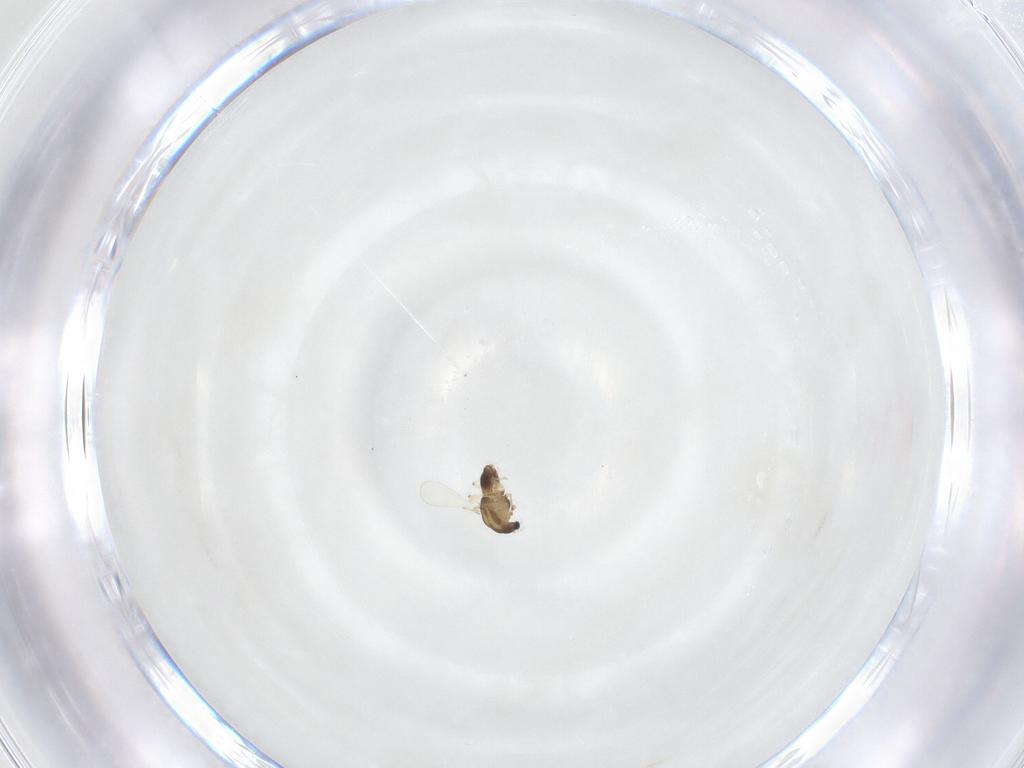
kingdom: Animalia
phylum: Arthropoda
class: Insecta
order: Diptera
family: Chironomidae
